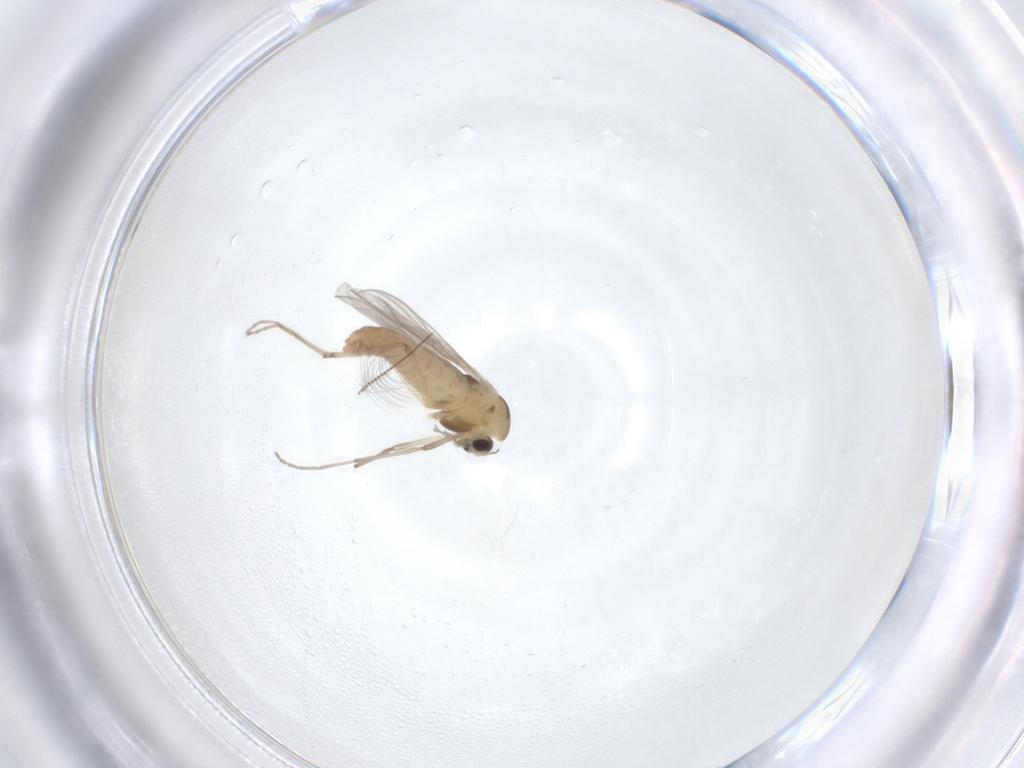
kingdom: Animalia
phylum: Arthropoda
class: Insecta
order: Diptera
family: Chironomidae
